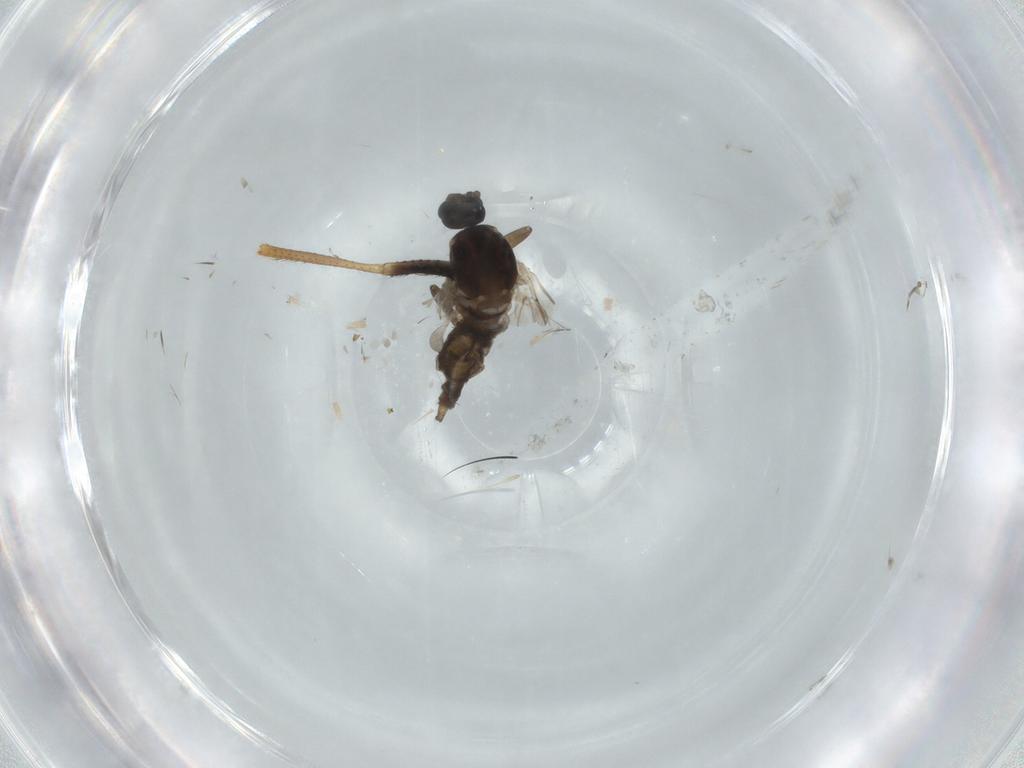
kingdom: Animalia
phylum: Arthropoda
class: Insecta
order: Diptera
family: Cecidomyiidae
